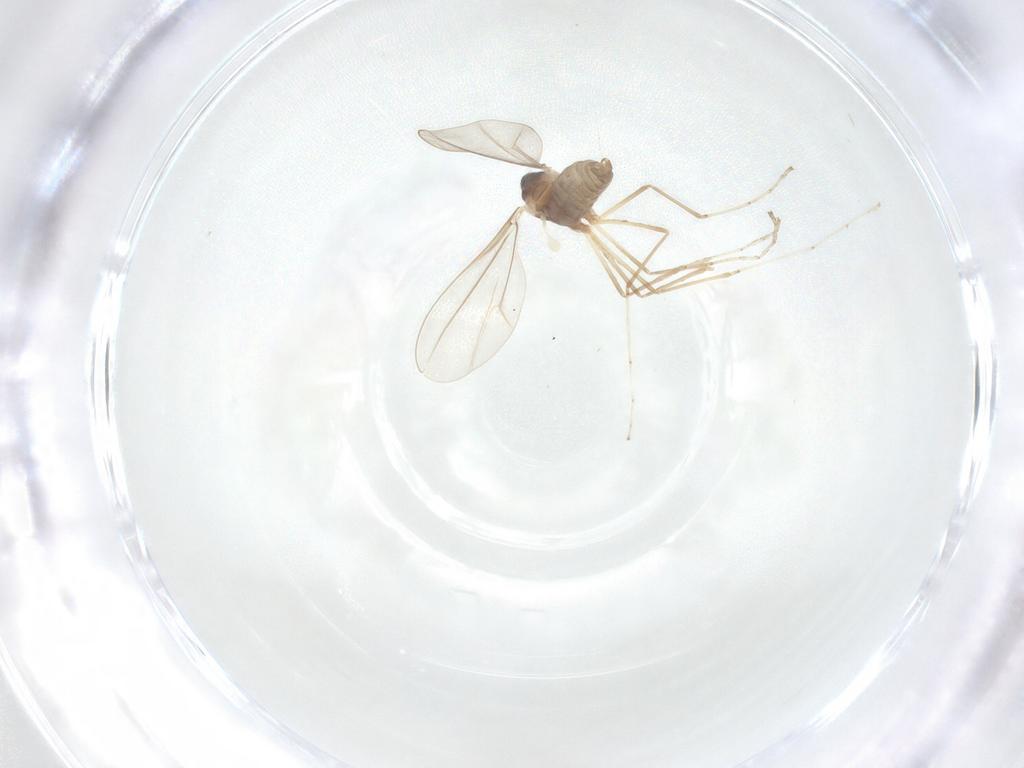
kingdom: Animalia
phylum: Arthropoda
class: Insecta
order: Diptera
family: Cecidomyiidae
